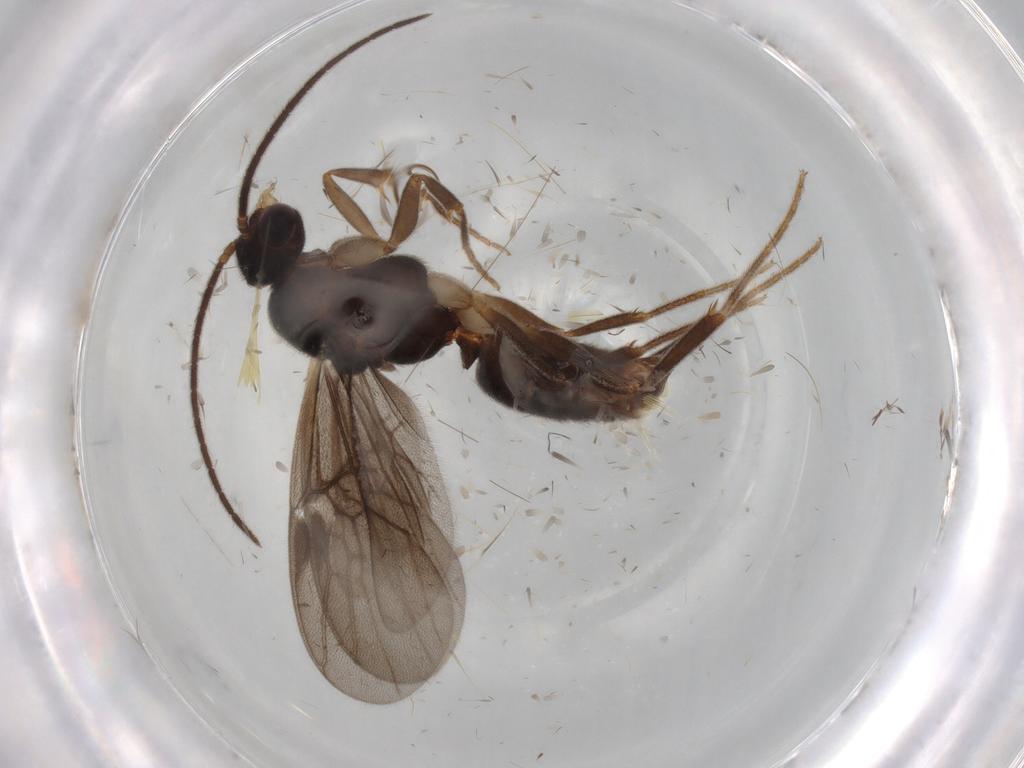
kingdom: Animalia
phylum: Arthropoda
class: Insecta
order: Hymenoptera
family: Formicidae
